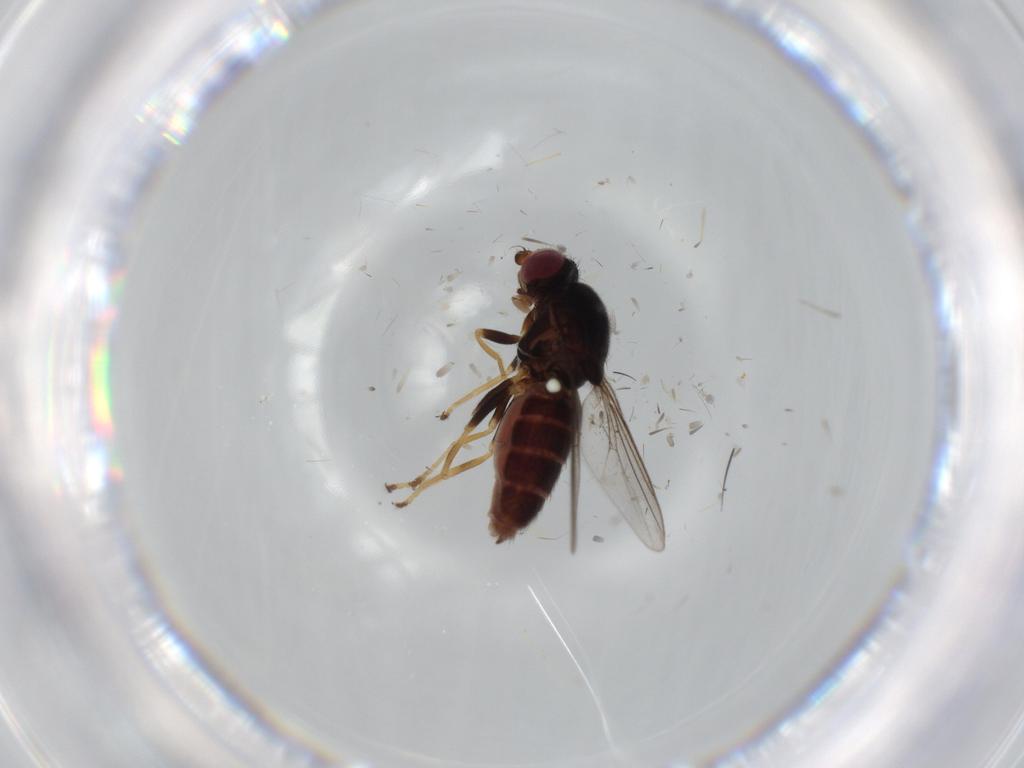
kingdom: Animalia
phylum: Arthropoda
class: Insecta
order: Diptera
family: Chloropidae
